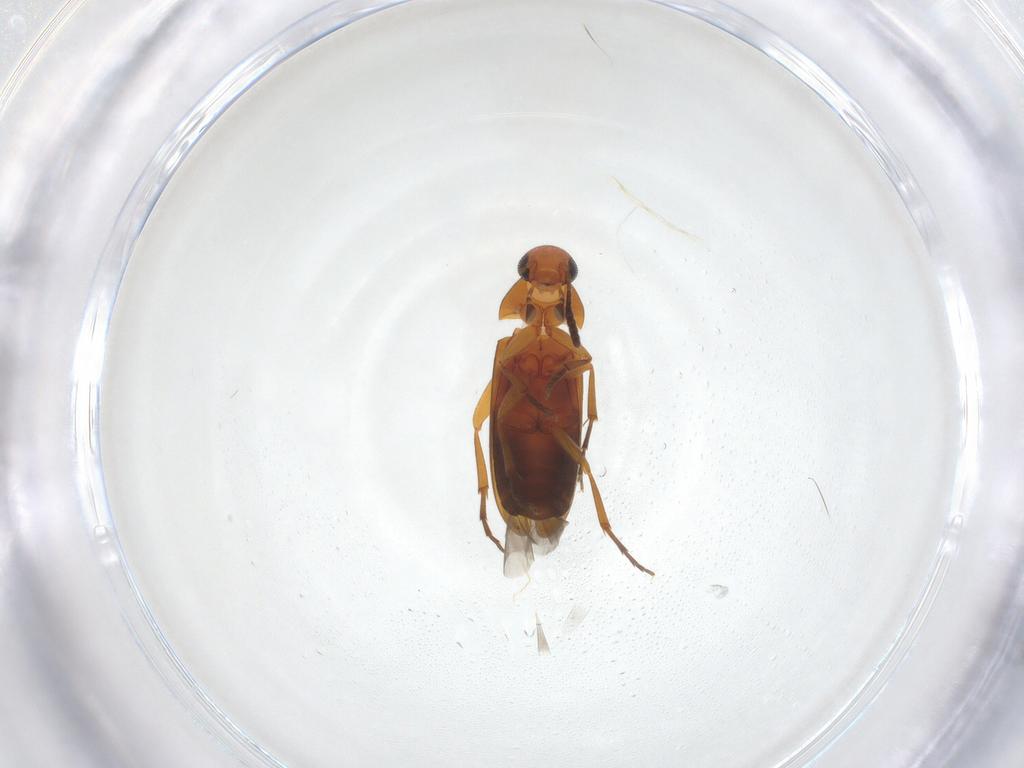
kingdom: Animalia
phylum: Arthropoda
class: Insecta
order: Coleoptera
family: Scraptiidae
